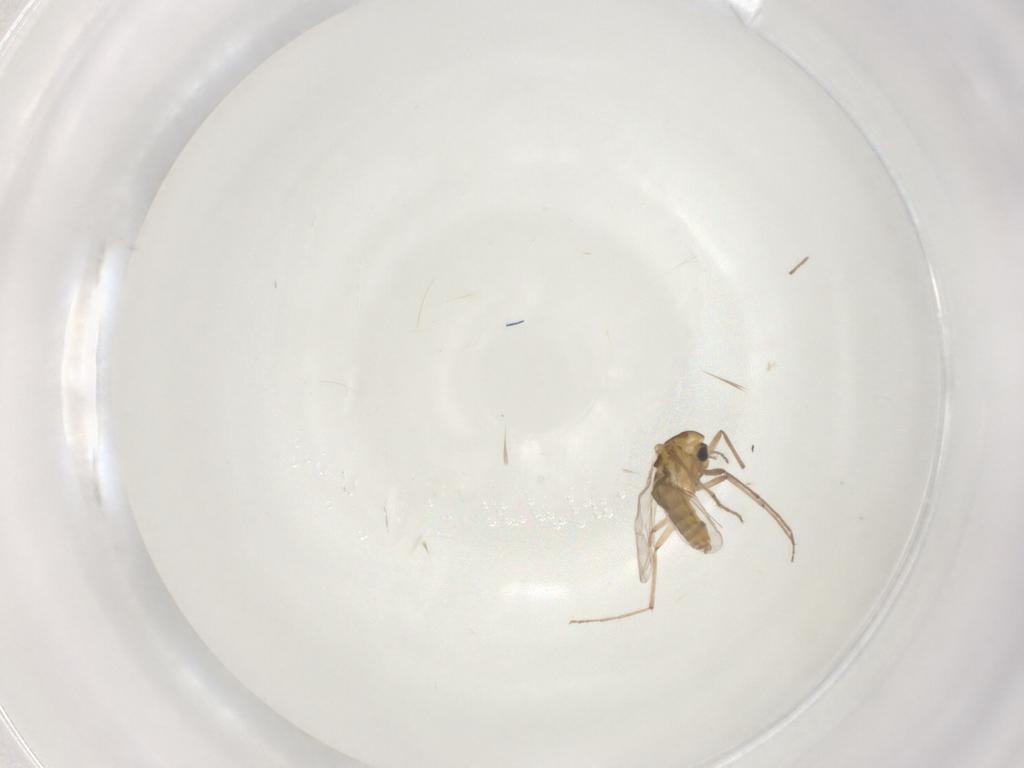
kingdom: Animalia
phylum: Arthropoda
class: Insecta
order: Diptera
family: Chironomidae
